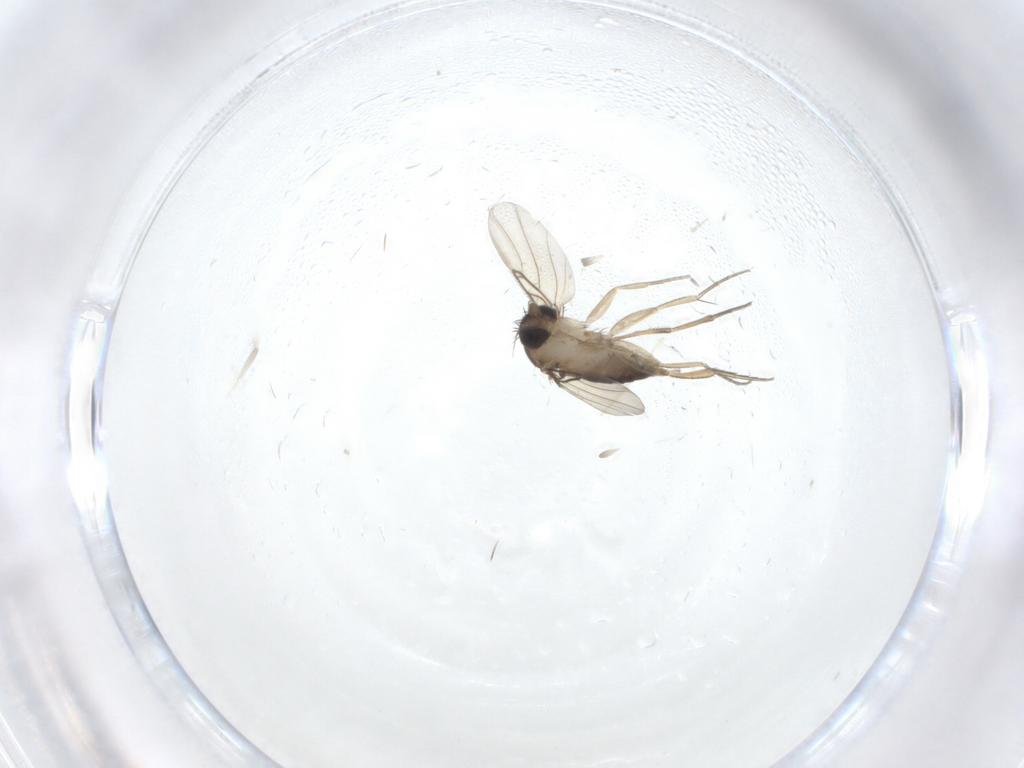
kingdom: Animalia
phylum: Arthropoda
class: Insecta
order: Diptera
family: Phoridae
